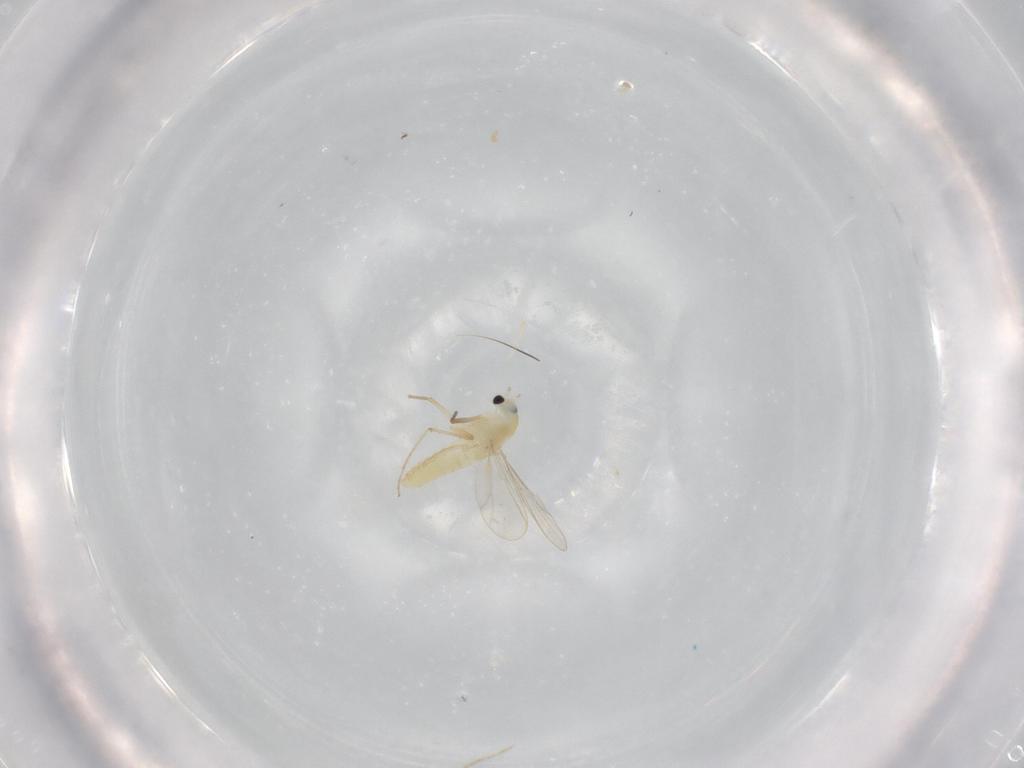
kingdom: Animalia
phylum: Arthropoda
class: Insecta
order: Diptera
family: Chironomidae
